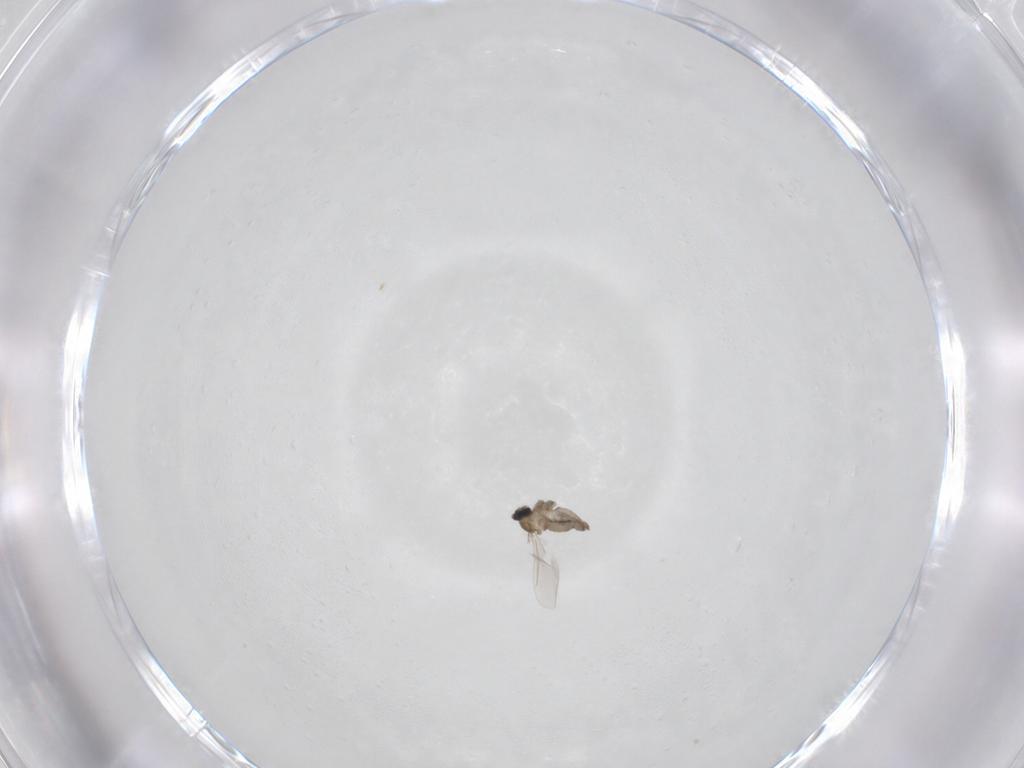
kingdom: Animalia
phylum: Arthropoda
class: Insecta
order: Diptera
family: Cecidomyiidae
